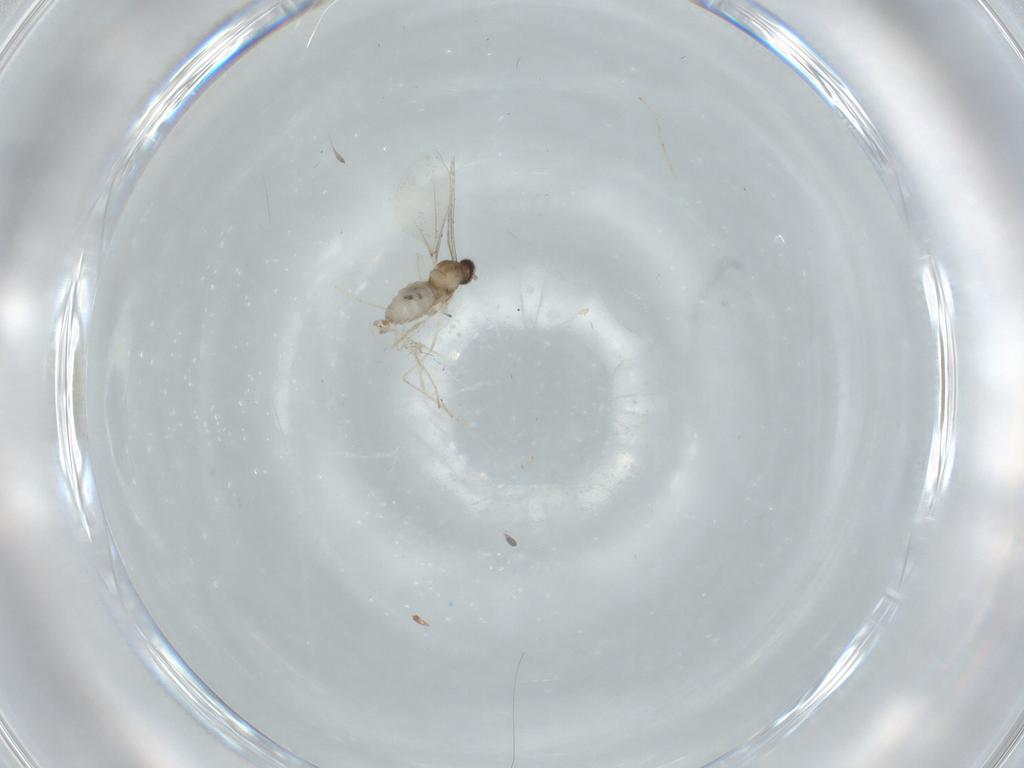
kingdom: Animalia
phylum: Arthropoda
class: Insecta
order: Diptera
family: Cecidomyiidae
